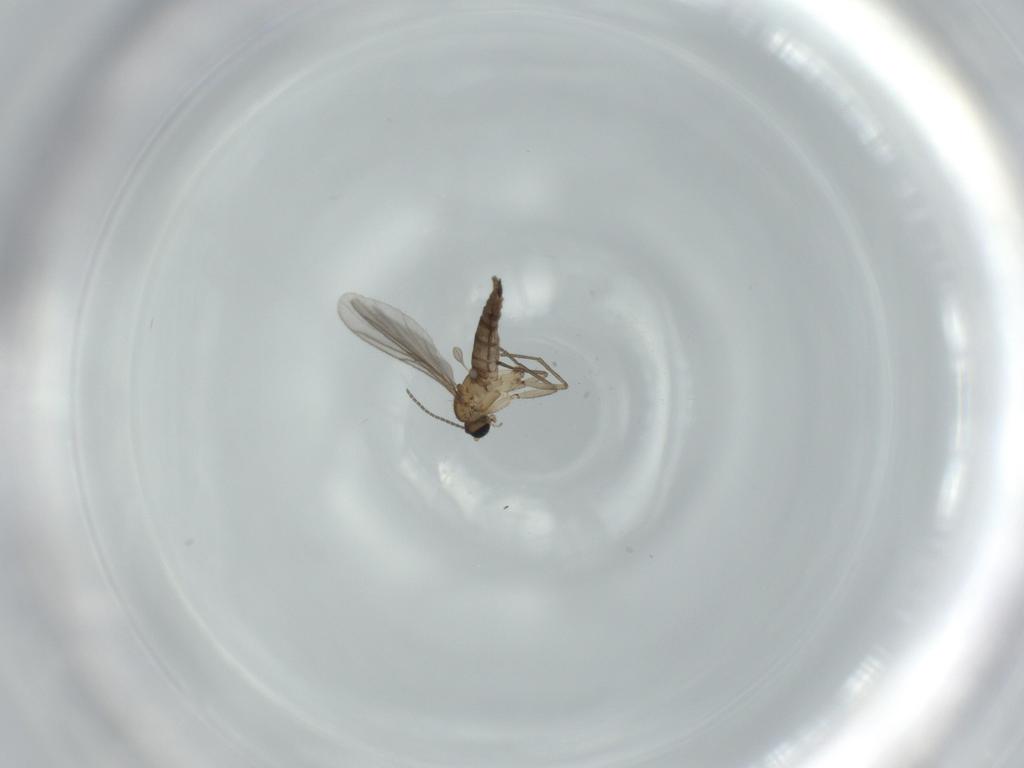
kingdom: Animalia
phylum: Arthropoda
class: Insecta
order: Diptera
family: Sciaridae
